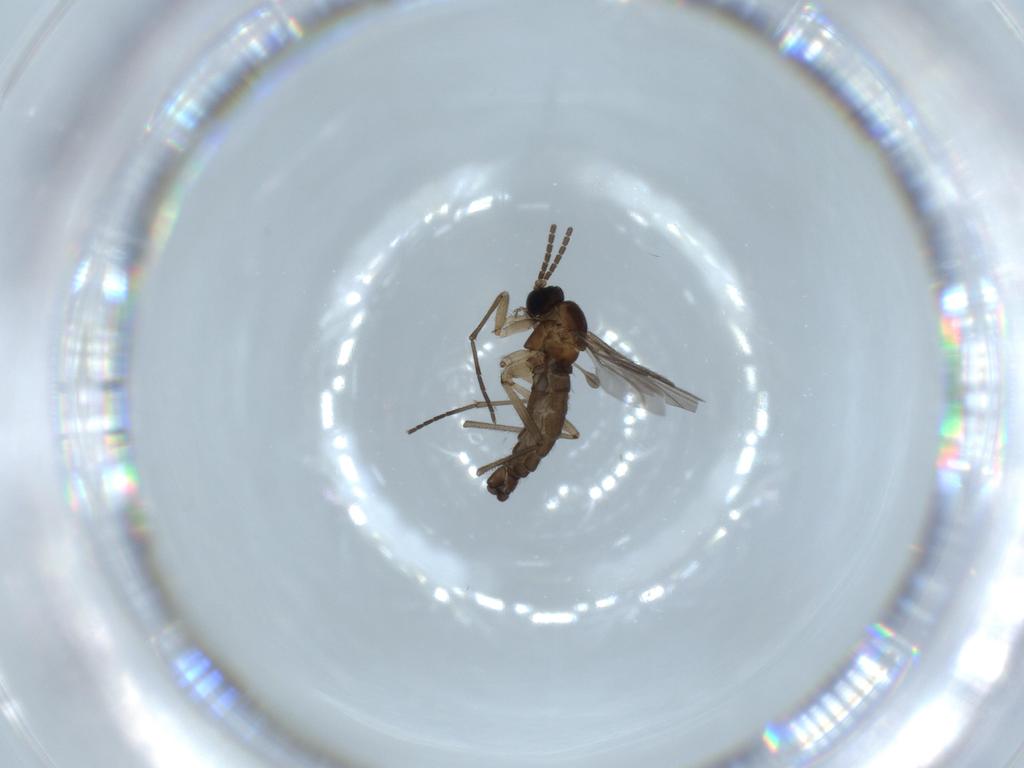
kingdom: Animalia
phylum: Arthropoda
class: Insecta
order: Diptera
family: Sciaridae
